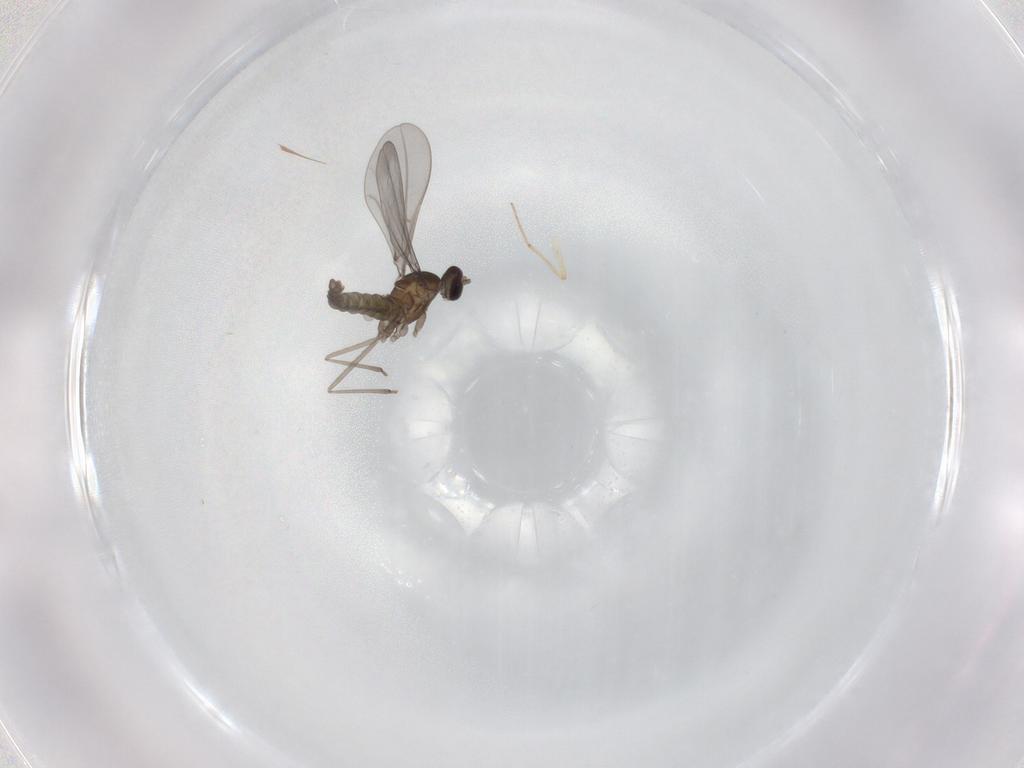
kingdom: Animalia
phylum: Arthropoda
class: Insecta
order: Diptera
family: Cecidomyiidae
